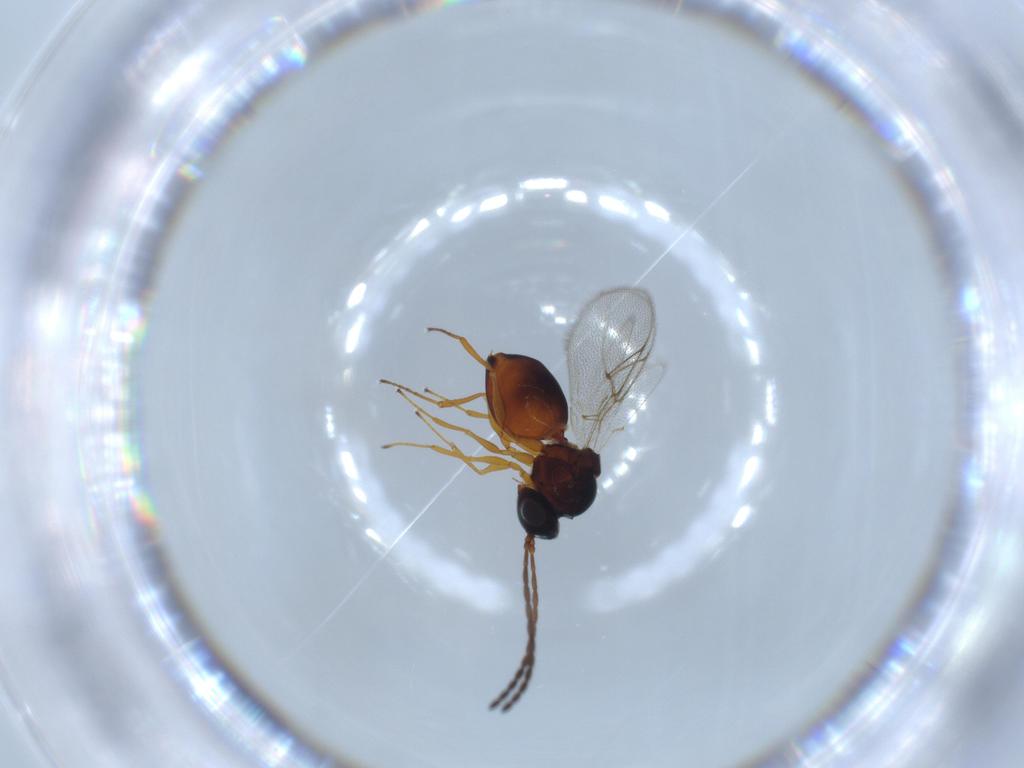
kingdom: Animalia
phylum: Arthropoda
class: Insecta
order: Hymenoptera
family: Figitidae
